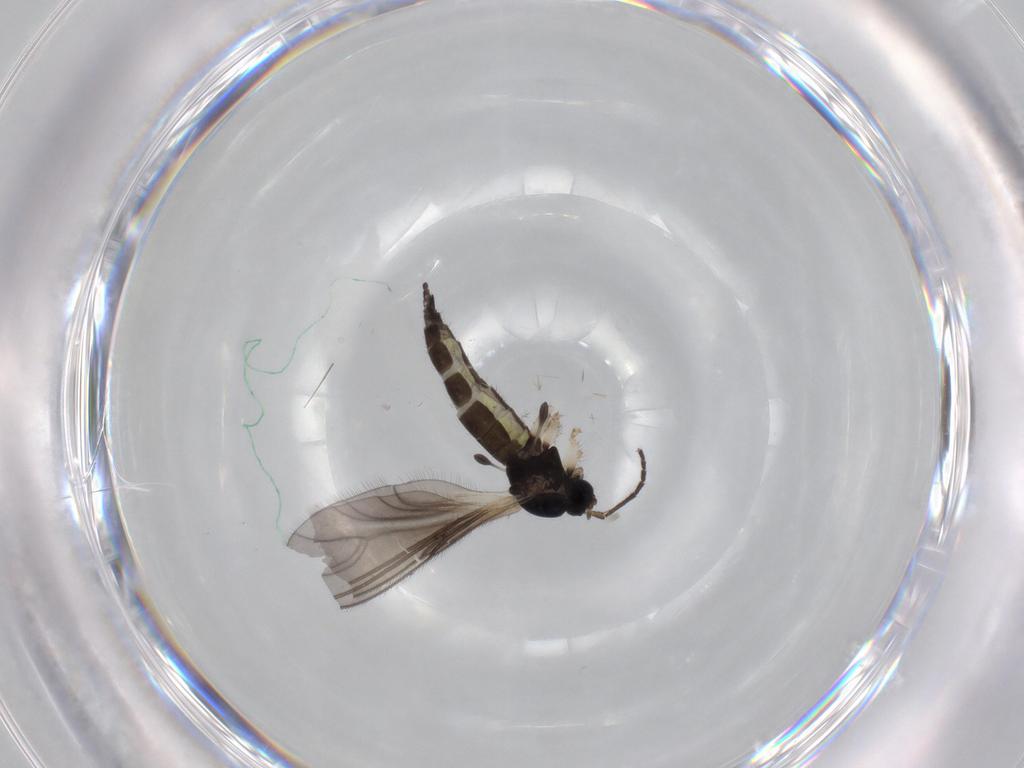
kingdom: Animalia
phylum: Arthropoda
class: Insecta
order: Diptera
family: Sciaridae
